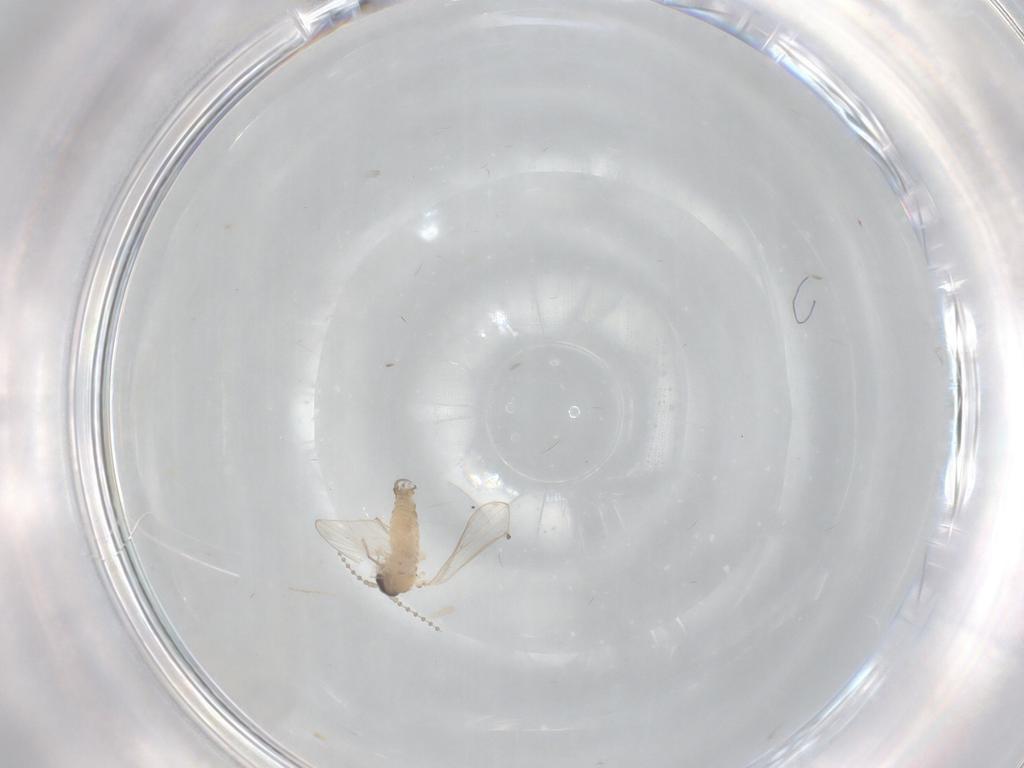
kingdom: Animalia
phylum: Arthropoda
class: Insecta
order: Diptera
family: Psychodidae
